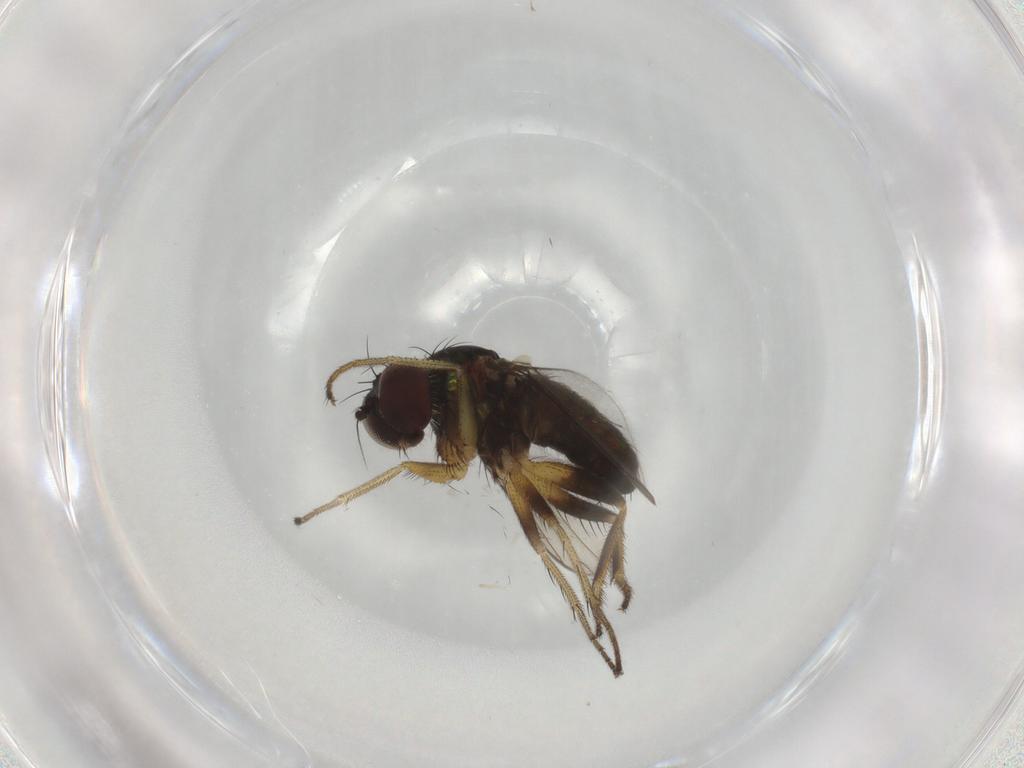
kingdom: Animalia
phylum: Arthropoda
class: Insecta
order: Diptera
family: Dolichopodidae
